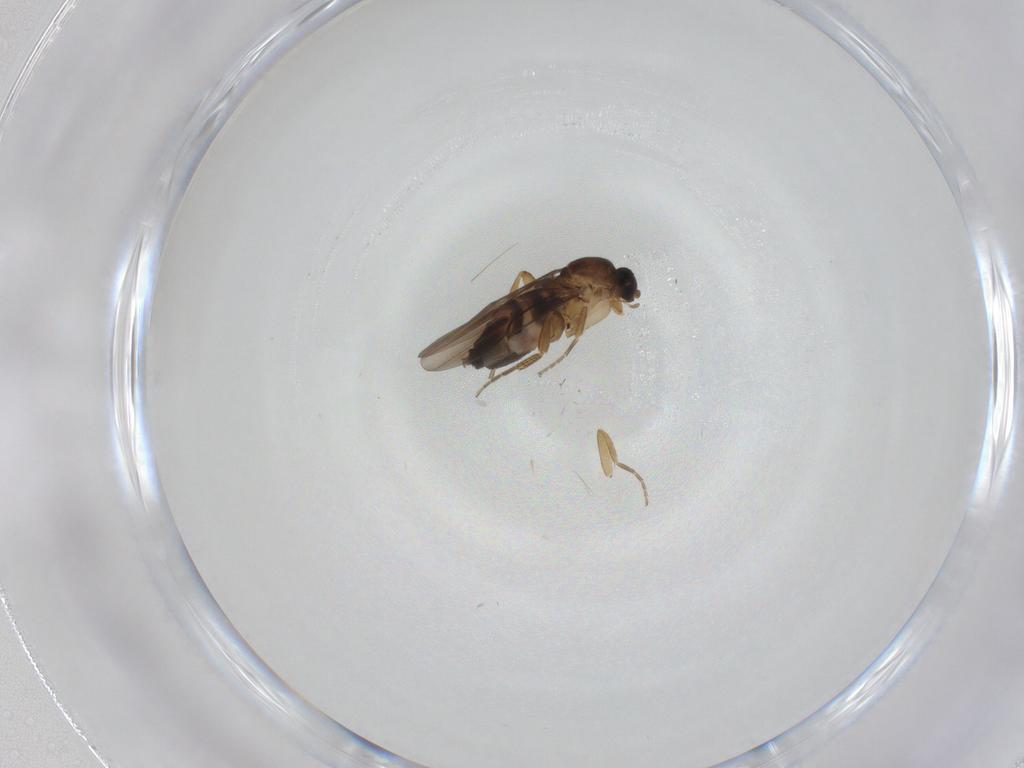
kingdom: Animalia
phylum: Arthropoda
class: Insecta
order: Diptera
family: Phoridae
